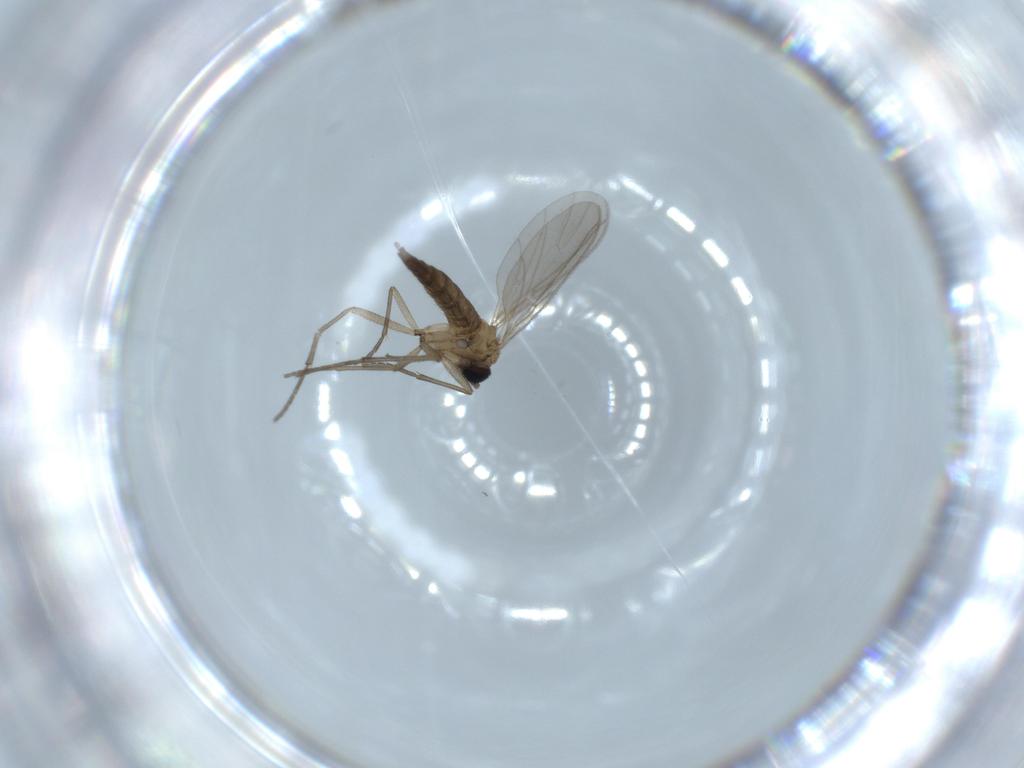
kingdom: Animalia
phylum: Arthropoda
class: Insecta
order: Diptera
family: Sciaridae
